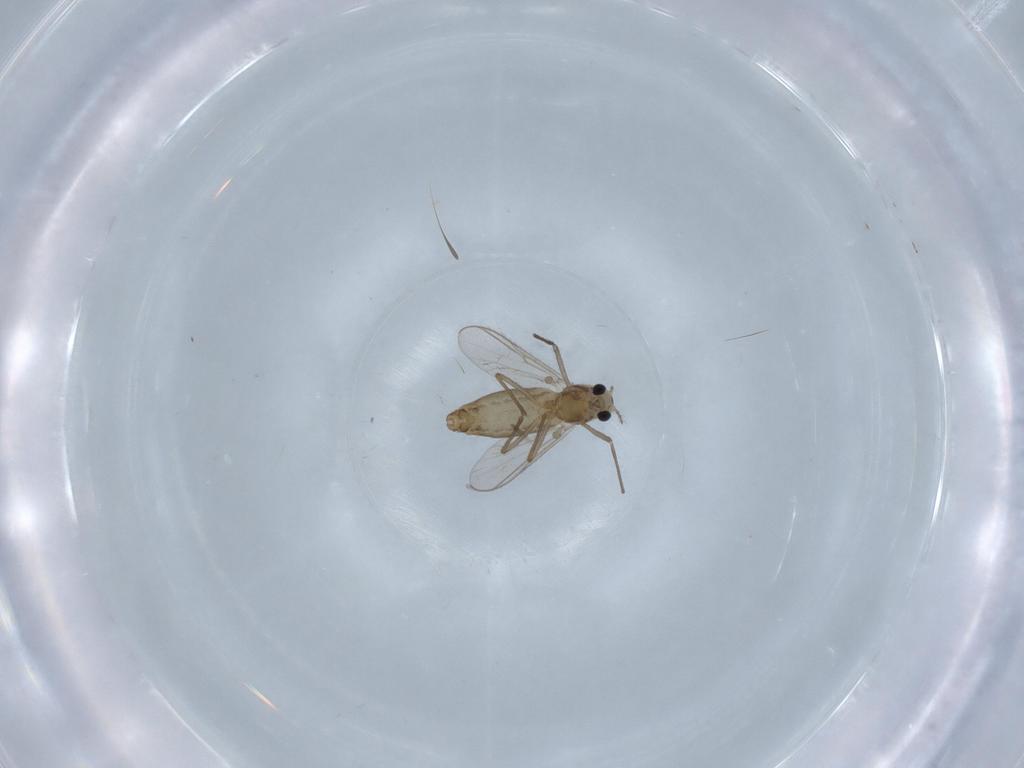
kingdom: Animalia
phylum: Arthropoda
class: Insecta
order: Diptera
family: Chironomidae
